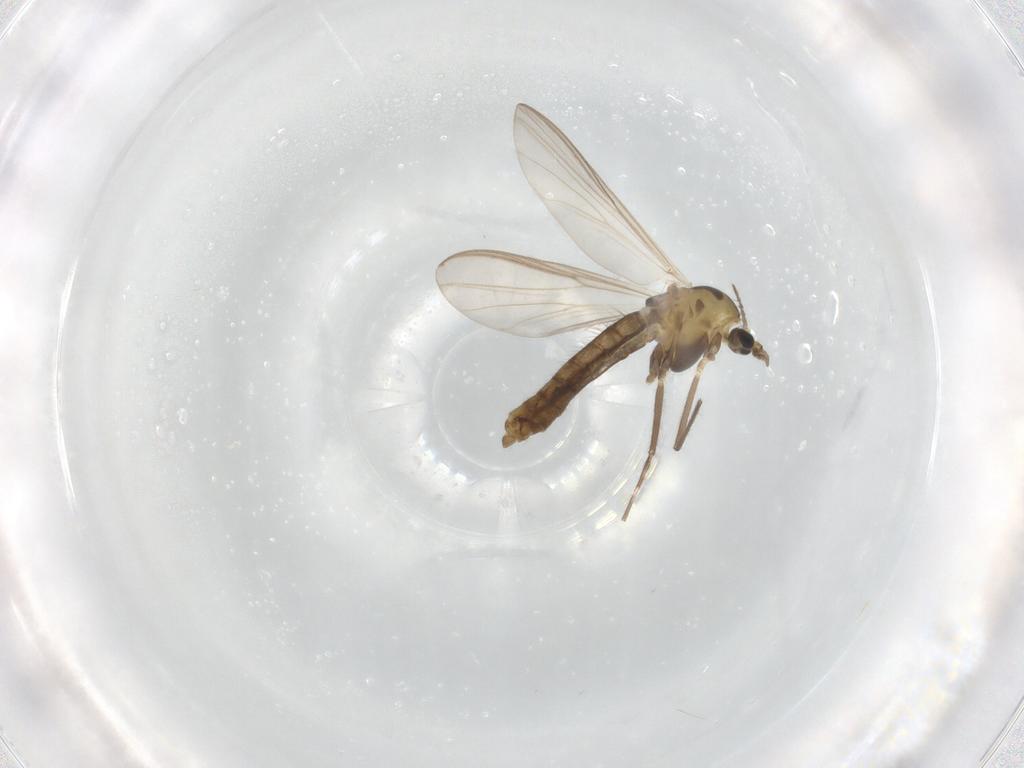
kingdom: Animalia
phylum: Arthropoda
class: Insecta
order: Diptera
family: Chironomidae
